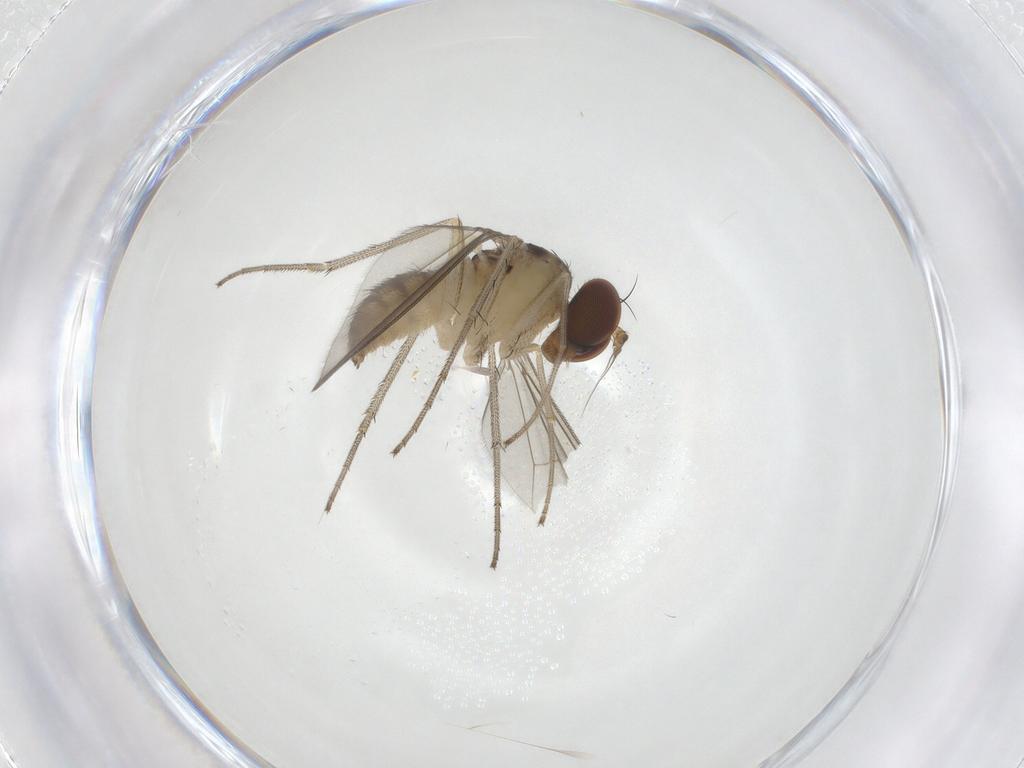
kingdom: Animalia
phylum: Arthropoda
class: Insecta
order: Diptera
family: Dolichopodidae
